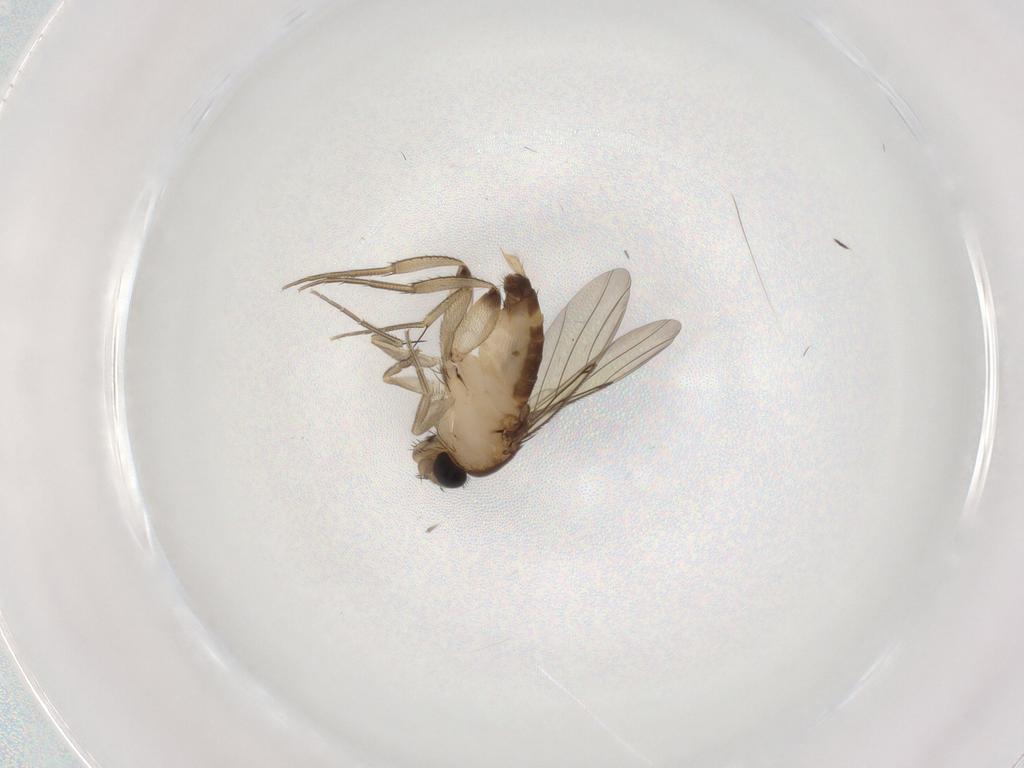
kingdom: Animalia
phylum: Arthropoda
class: Insecta
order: Diptera
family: Phoridae
